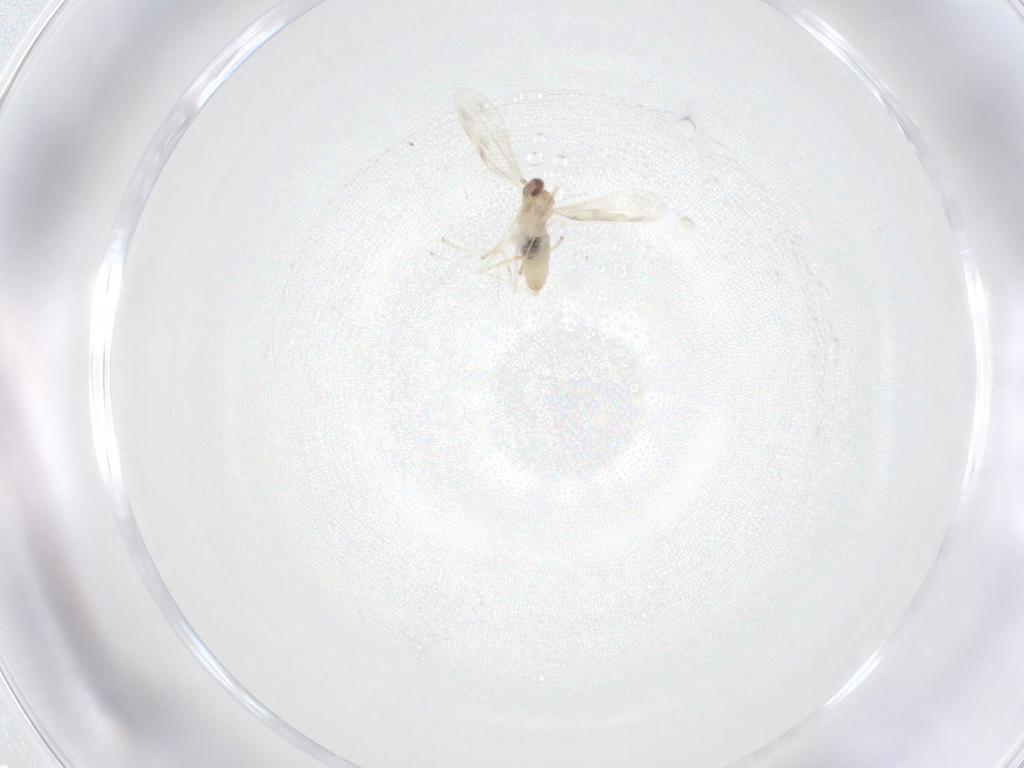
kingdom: Animalia
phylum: Arthropoda
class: Insecta
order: Diptera
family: Cecidomyiidae
